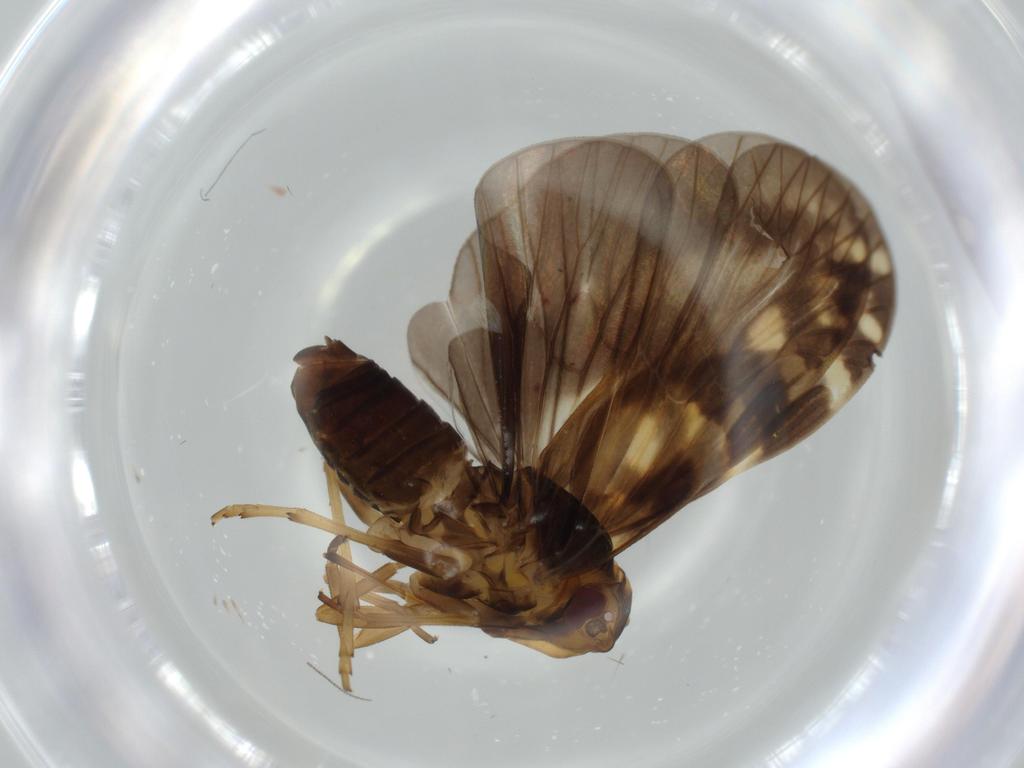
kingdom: Animalia
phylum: Arthropoda
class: Insecta
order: Hemiptera
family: Cixiidae
